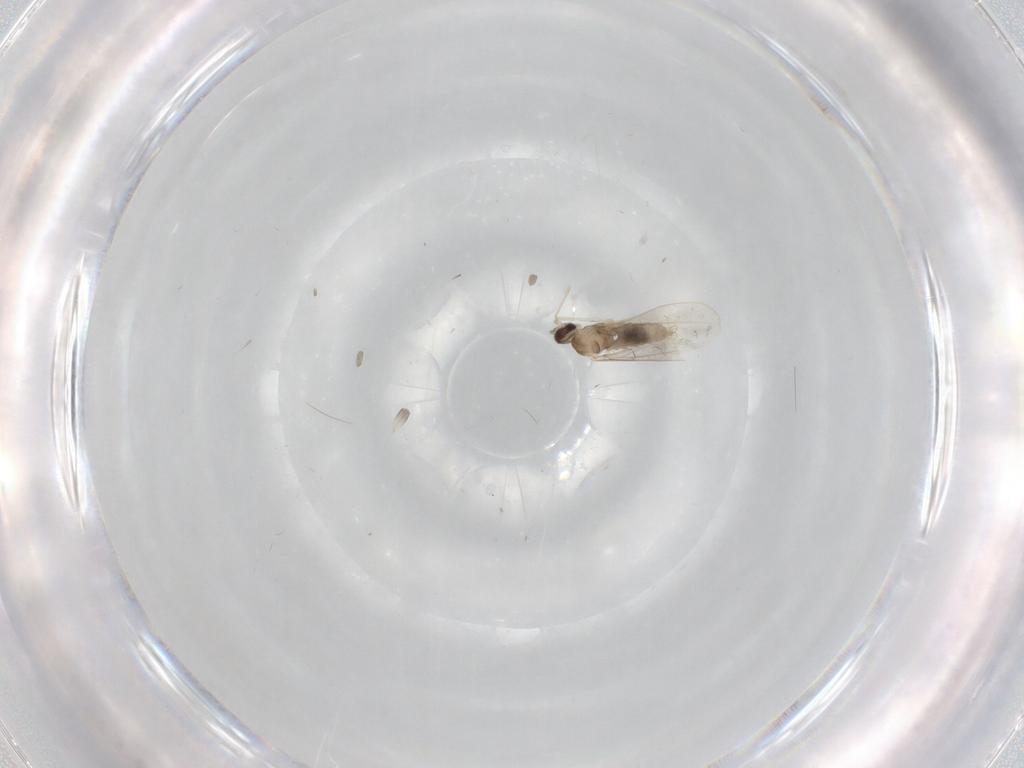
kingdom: Animalia
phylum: Arthropoda
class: Insecta
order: Diptera
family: Cecidomyiidae
